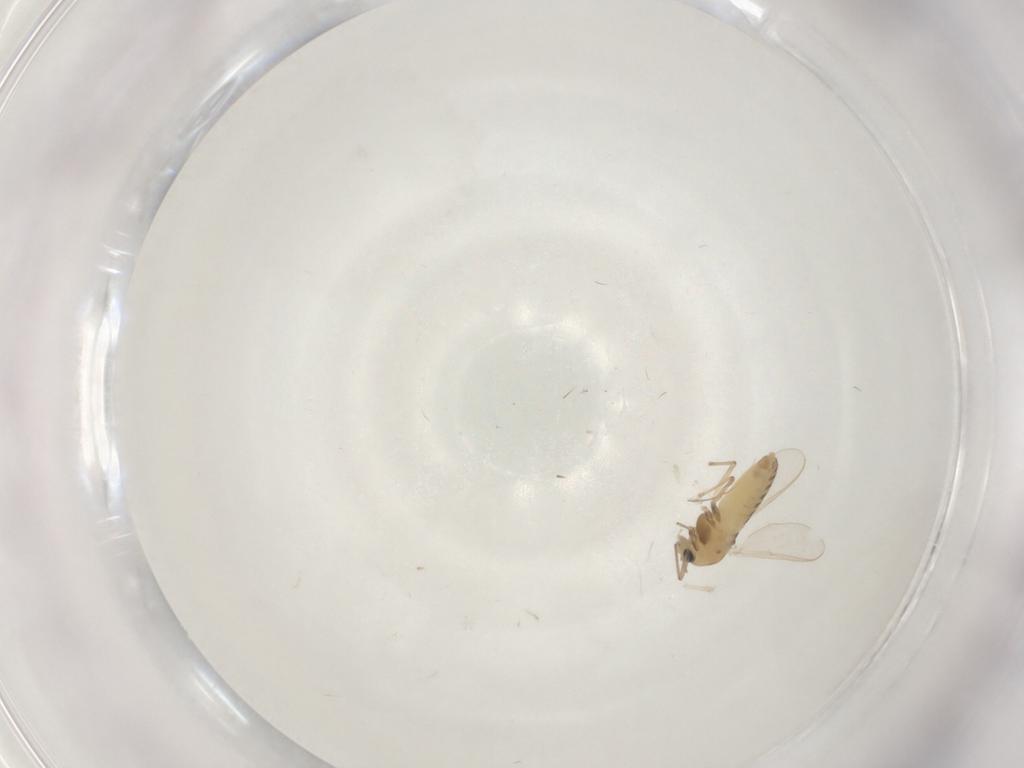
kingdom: Animalia
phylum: Arthropoda
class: Insecta
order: Diptera
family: Chironomidae
